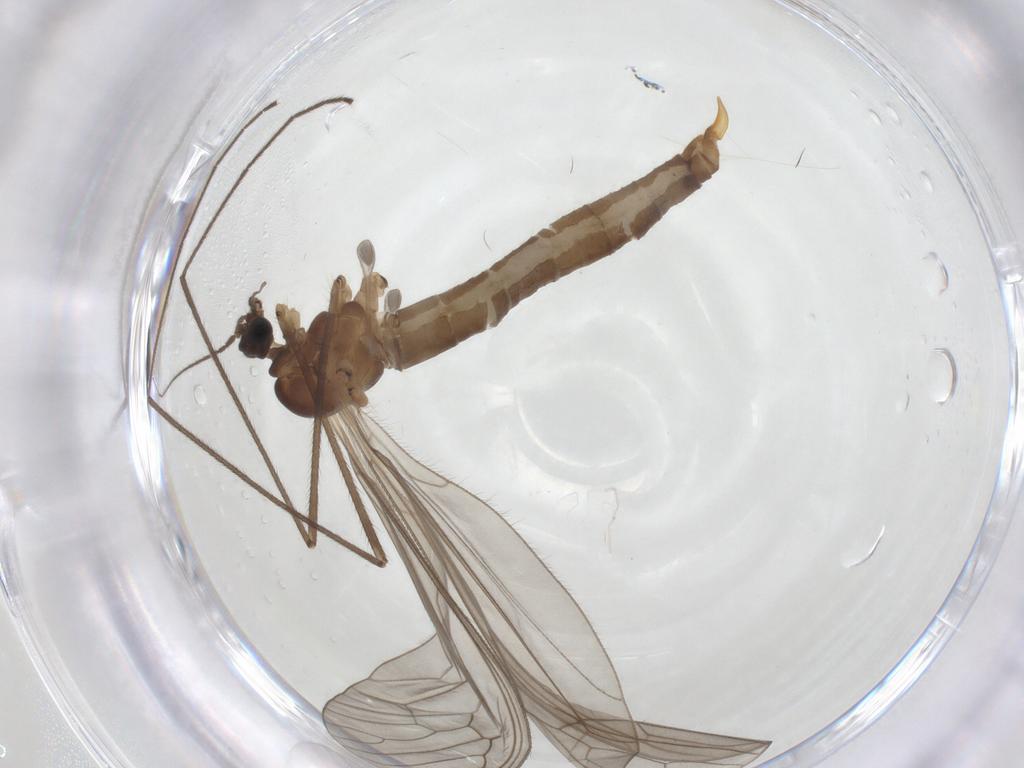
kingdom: Animalia
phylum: Arthropoda
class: Insecta
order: Diptera
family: Trichoceridae
